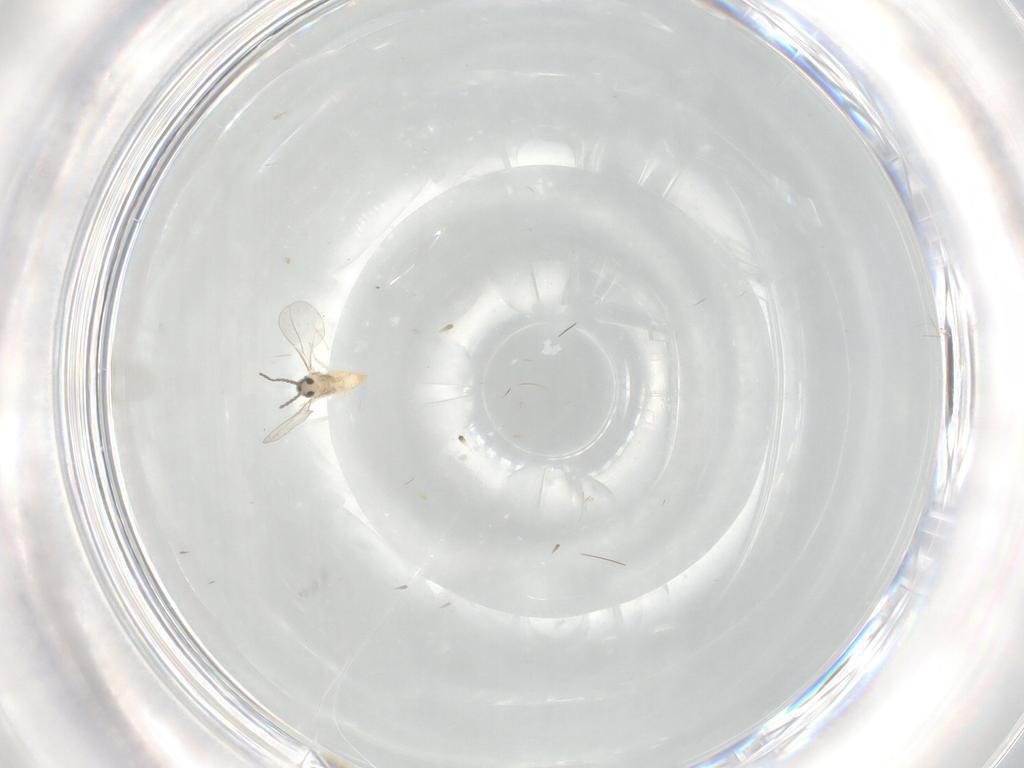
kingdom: Animalia
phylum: Arthropoda
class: Insecta
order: Diptera
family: Cecidomyiidae
